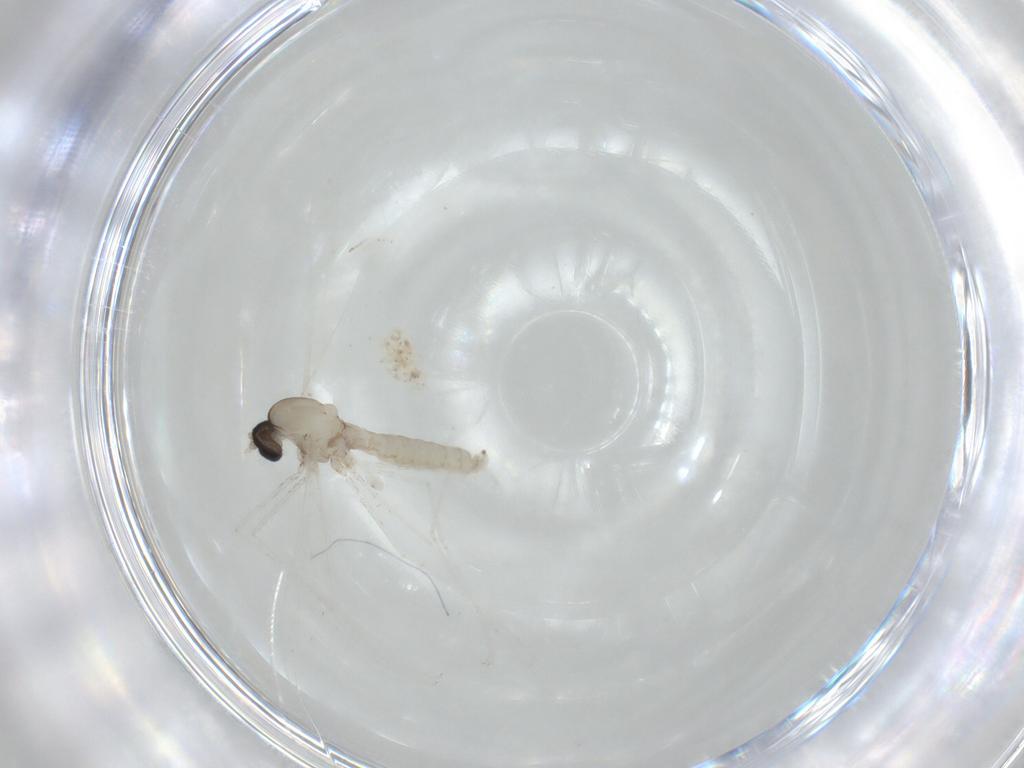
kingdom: Animalia
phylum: Arthropoda
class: Insecta
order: Diptera
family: Cecidomyiidae
